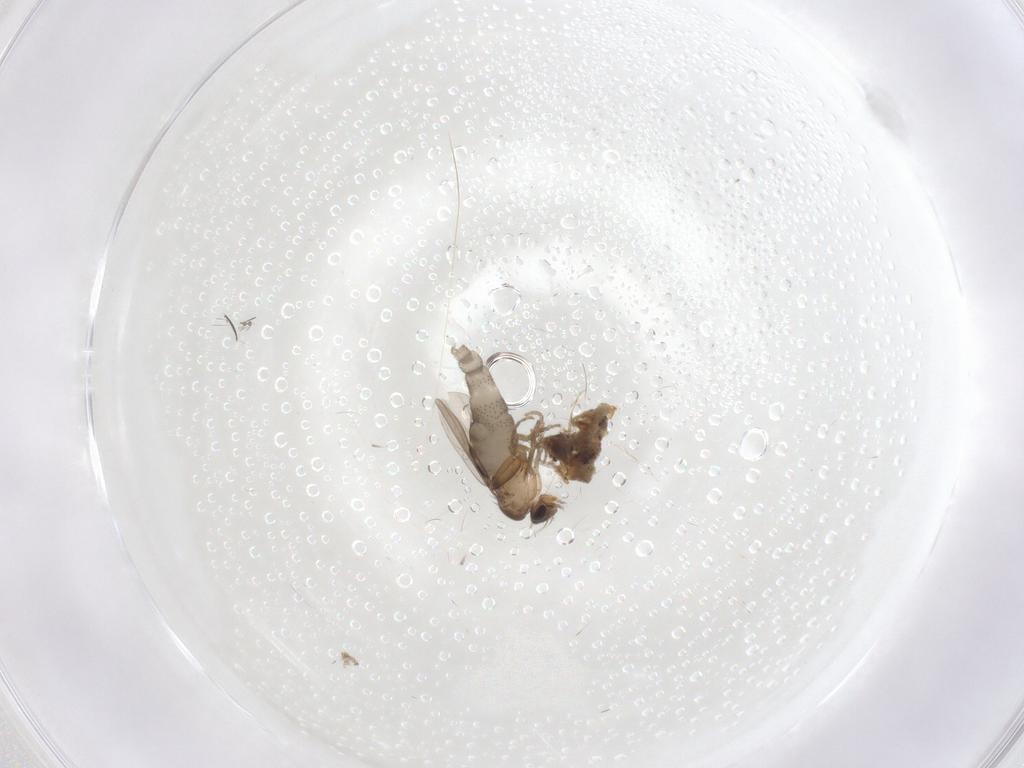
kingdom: Animalia
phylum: Arthropoda
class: Insecta
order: Diptera
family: Phoridae
